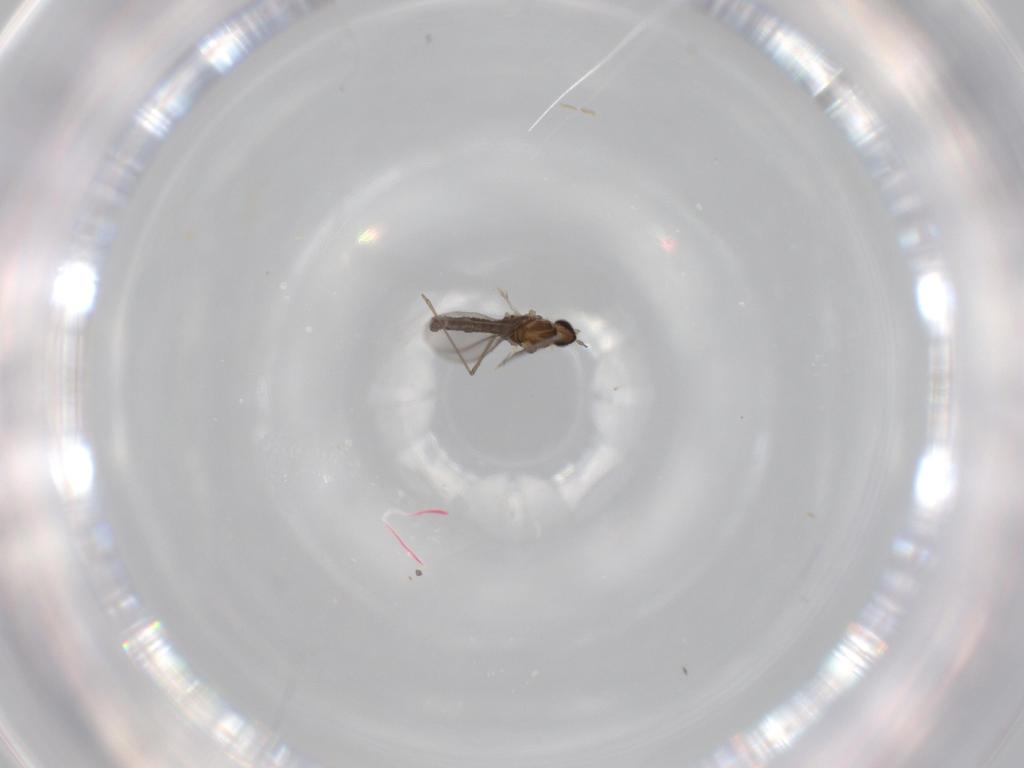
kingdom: Animalia
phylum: Arthropoda
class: Insecta
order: Diptera
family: Cecidomyiidae
